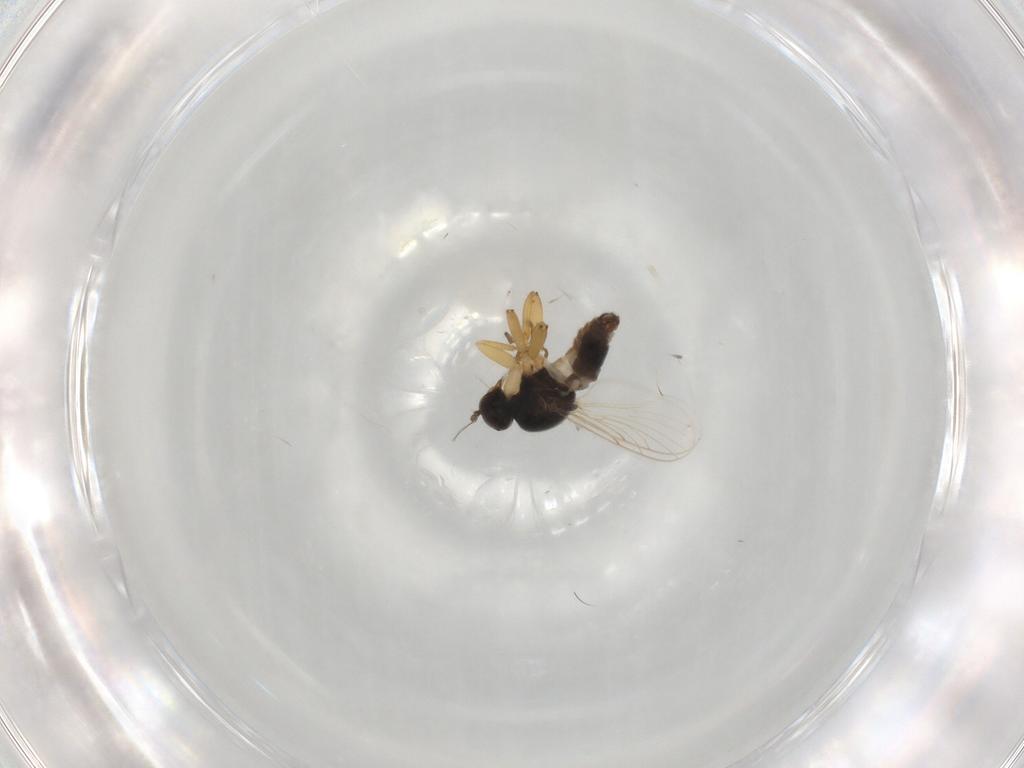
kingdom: Animalia
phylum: Arthropoda
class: Insecta
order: Diptera
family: Hybotidae
